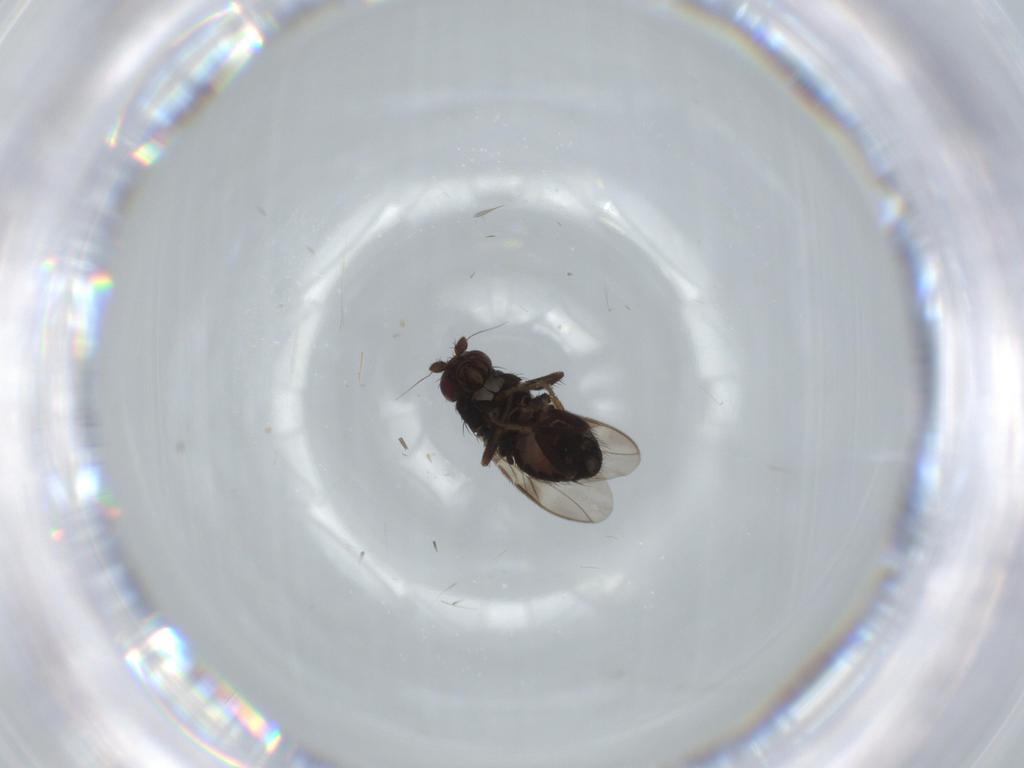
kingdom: Animalia
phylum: Arthropoda
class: Insecta
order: Diptera
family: Sphaeroceridae
